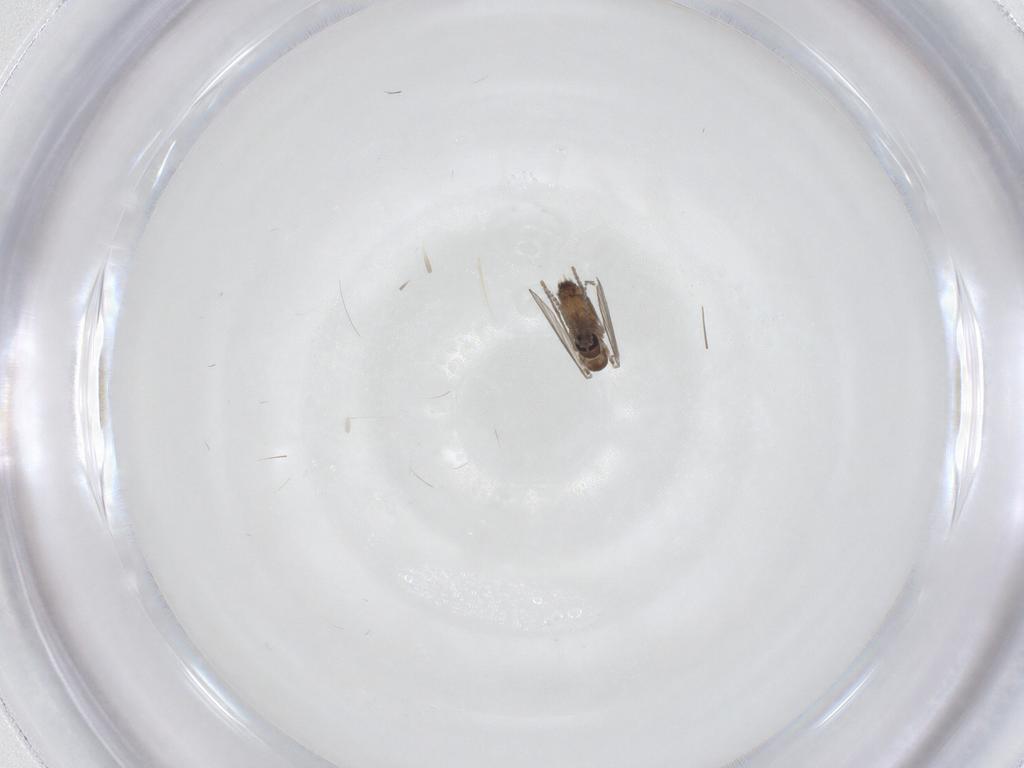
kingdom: Animalia
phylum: Arthropoda
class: Insecta
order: Diptera
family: Psychodidae
